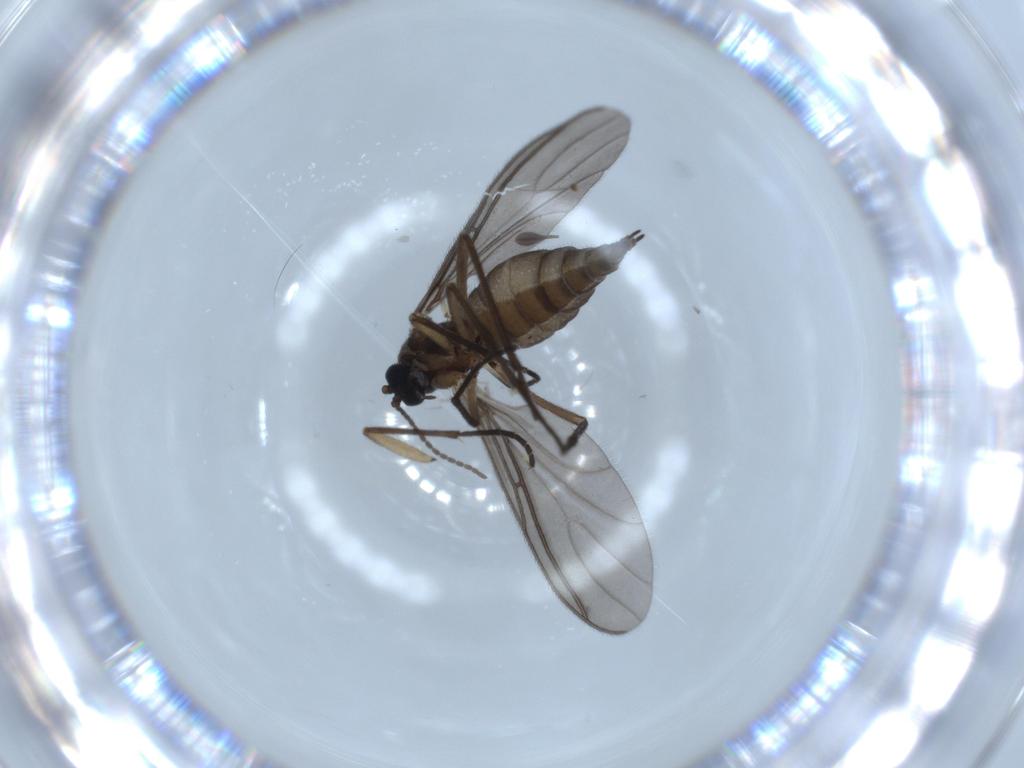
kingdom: Animalia
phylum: Arthropoda
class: Insecta
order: Diptera
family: Sciaridae
